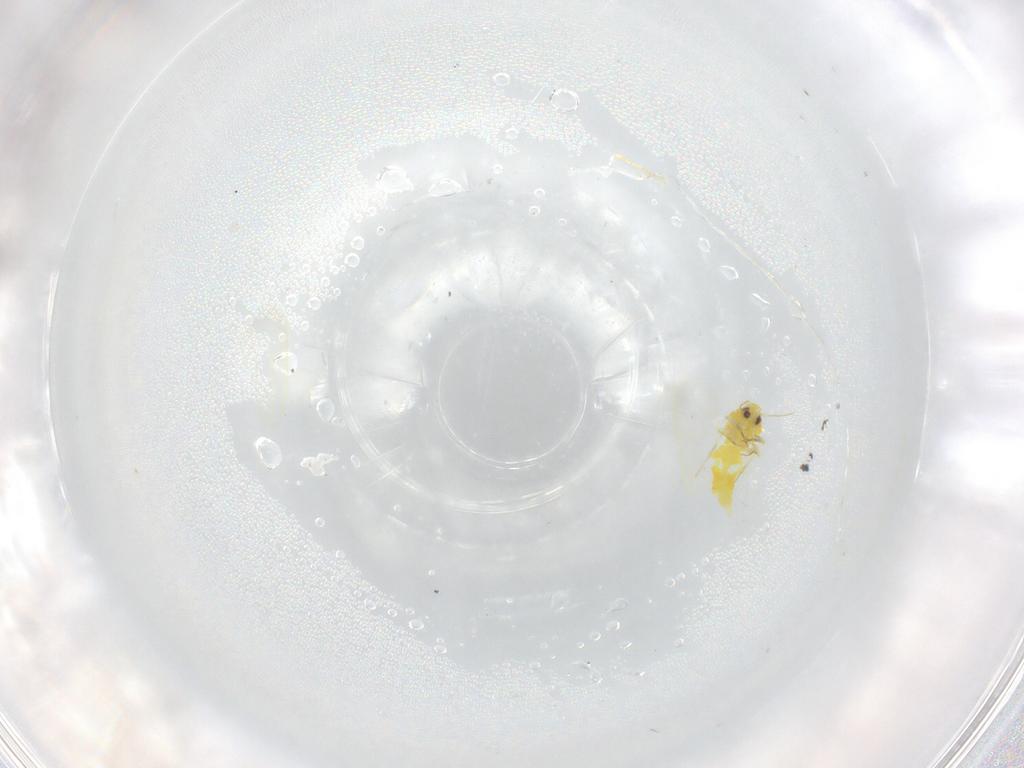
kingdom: Animalia
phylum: Arthropoda
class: Insecta
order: Hemiptera
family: Aleyrodidae
